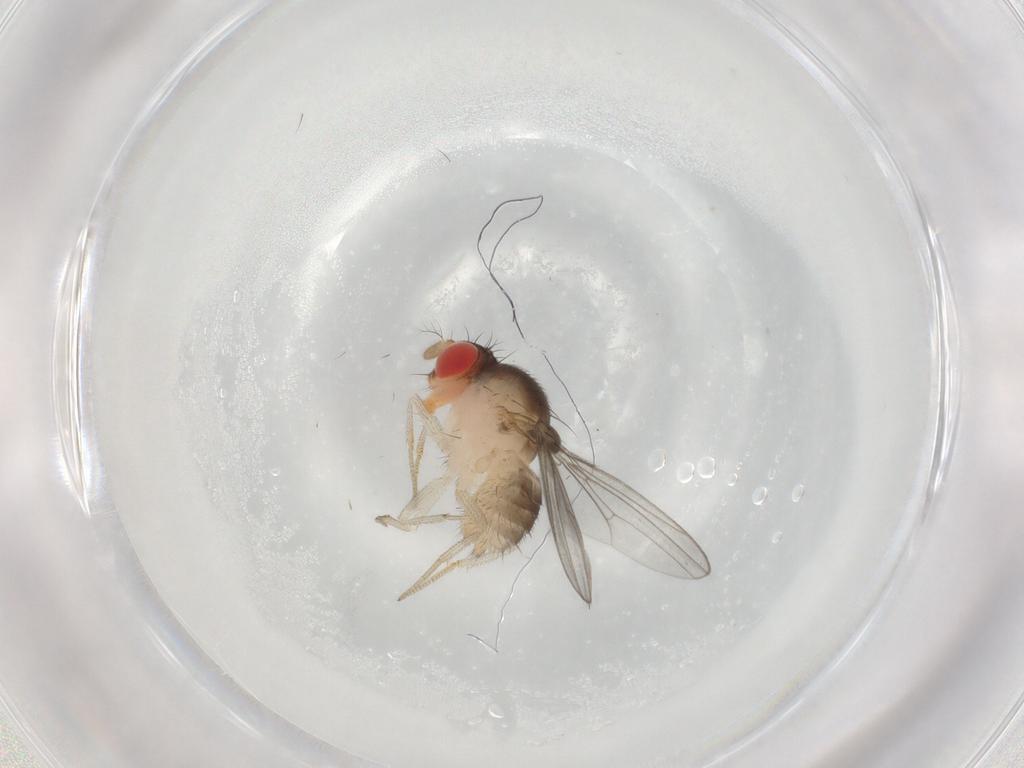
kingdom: Animalia
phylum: Arthropoda
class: Insecta
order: Diptera
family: Drosophilidae
